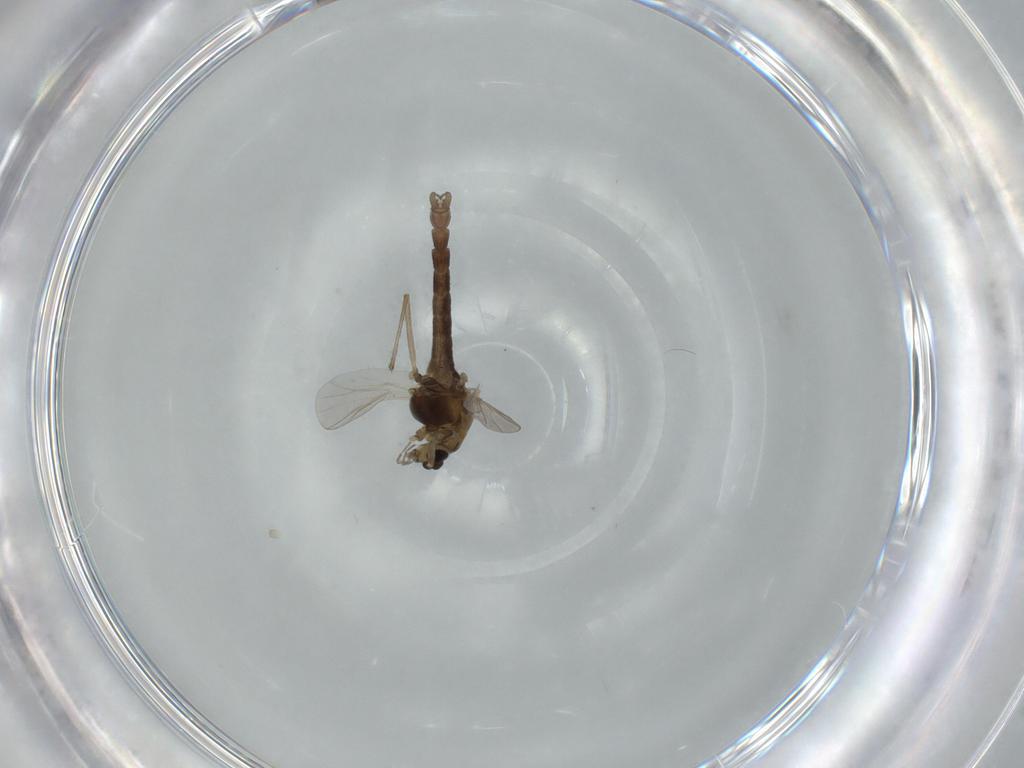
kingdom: Animalia
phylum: Arthropoda
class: Insecta
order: Diptera
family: Chironomidae
